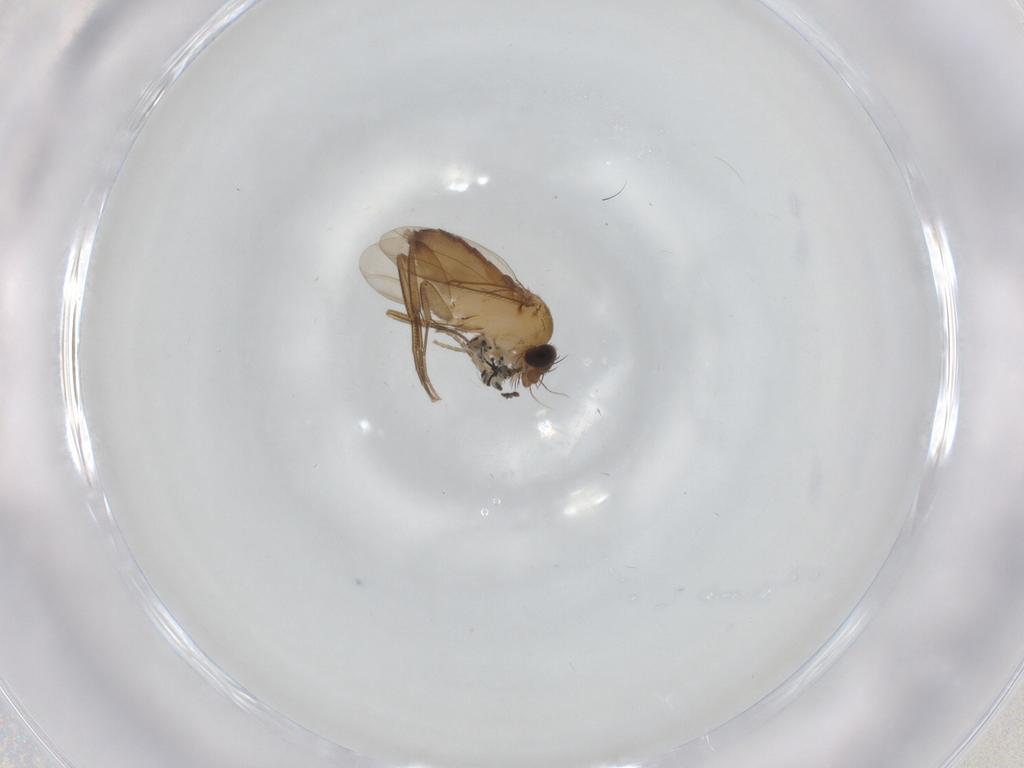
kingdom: Animalia
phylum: Arthropoda
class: Insecta
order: Diptera
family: Phoridae
